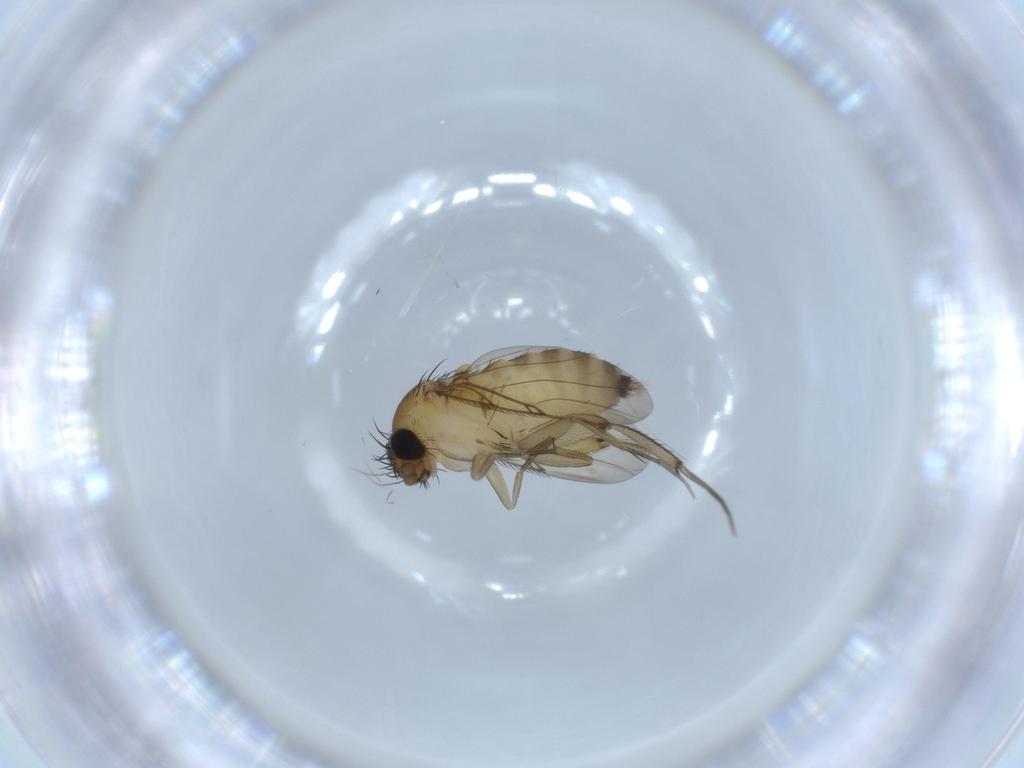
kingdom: Animalia
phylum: Arthropoda
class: Insecta
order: Diptera
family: Phoridae
